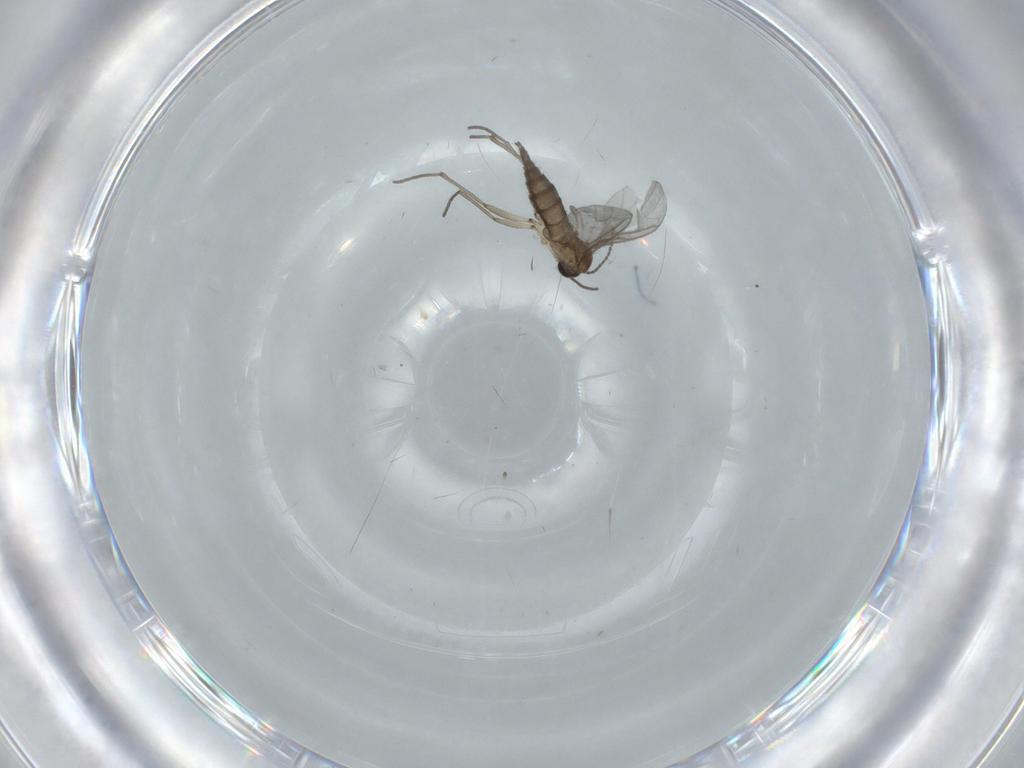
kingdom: Animalia
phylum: Arthropoda
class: Insecta
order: Diptera
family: Sciaridae
